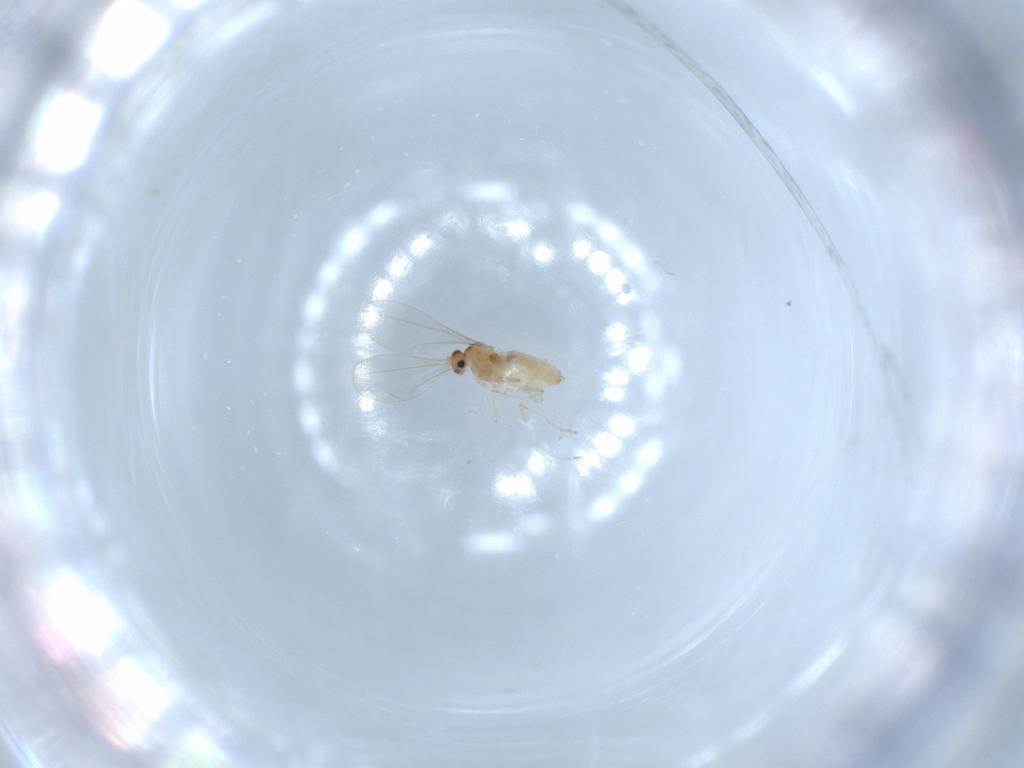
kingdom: Animalia
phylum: Arthropoda
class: Insecta
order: Diptera
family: Cecidomyiidae
